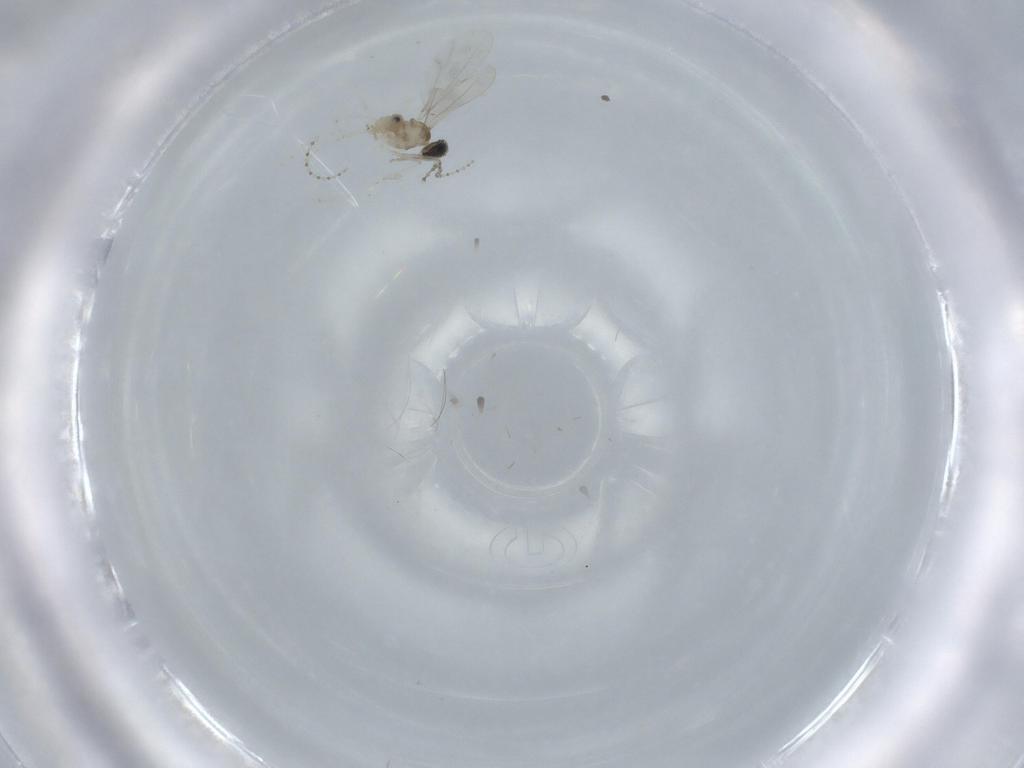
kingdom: Animalia
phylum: Arthropoda
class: Insecta
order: Diptera
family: Cecidomyiidae
